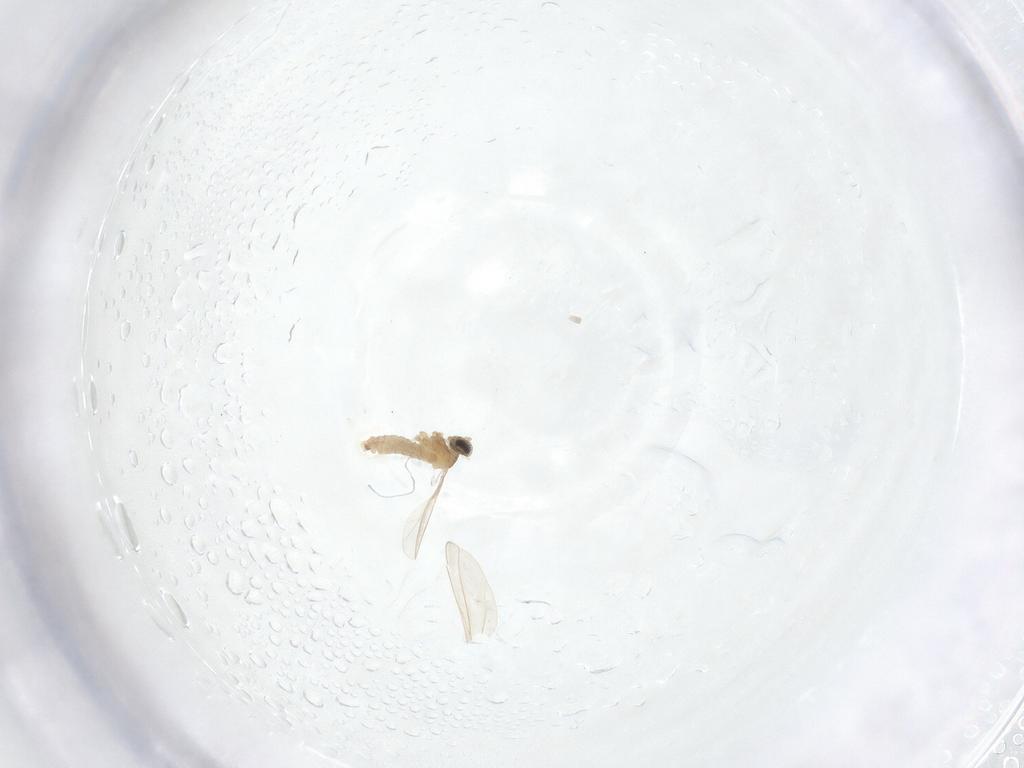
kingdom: Animalia
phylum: Arthropoda
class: Insecta
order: Diptera
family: Cecidomyiidae
